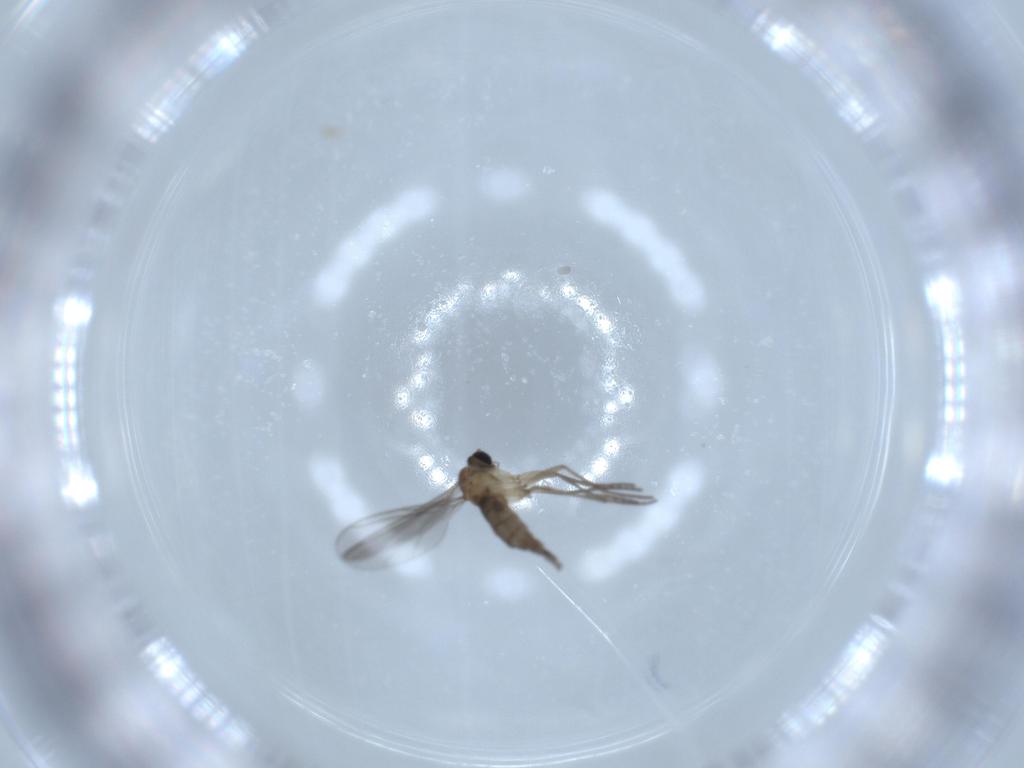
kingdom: Animalia
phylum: Arthropoda
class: Insecta
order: Diptera
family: Sciaridae
